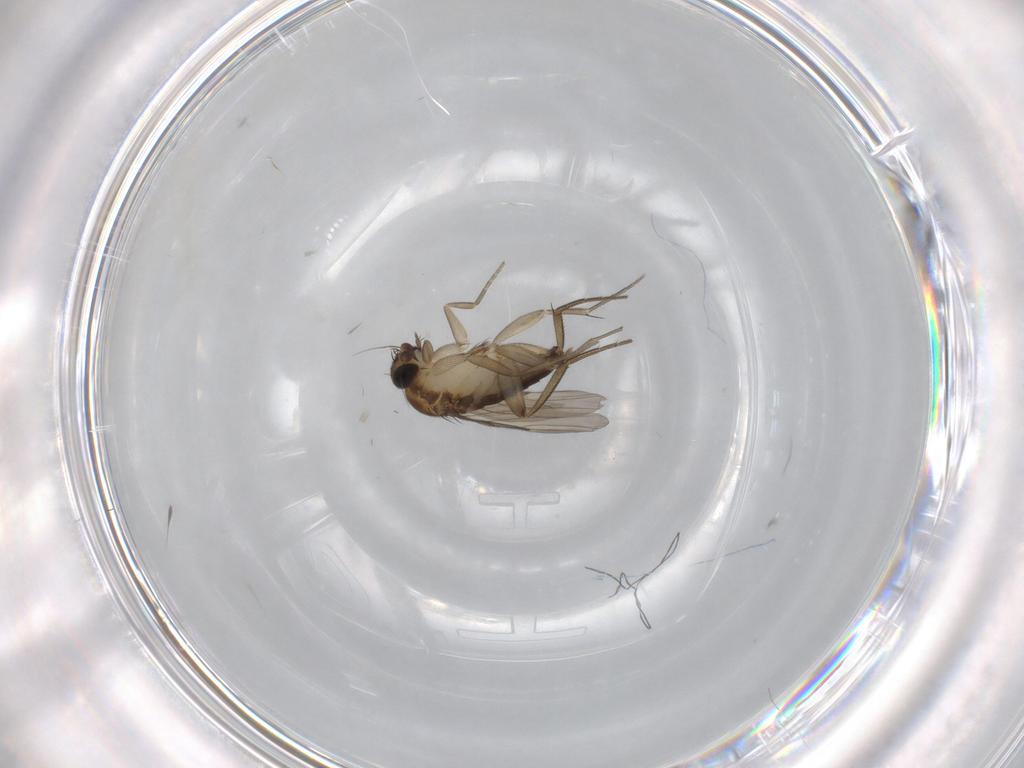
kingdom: Animalia
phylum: Arthropoda
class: Insecta
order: Diptera
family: Phoridae
